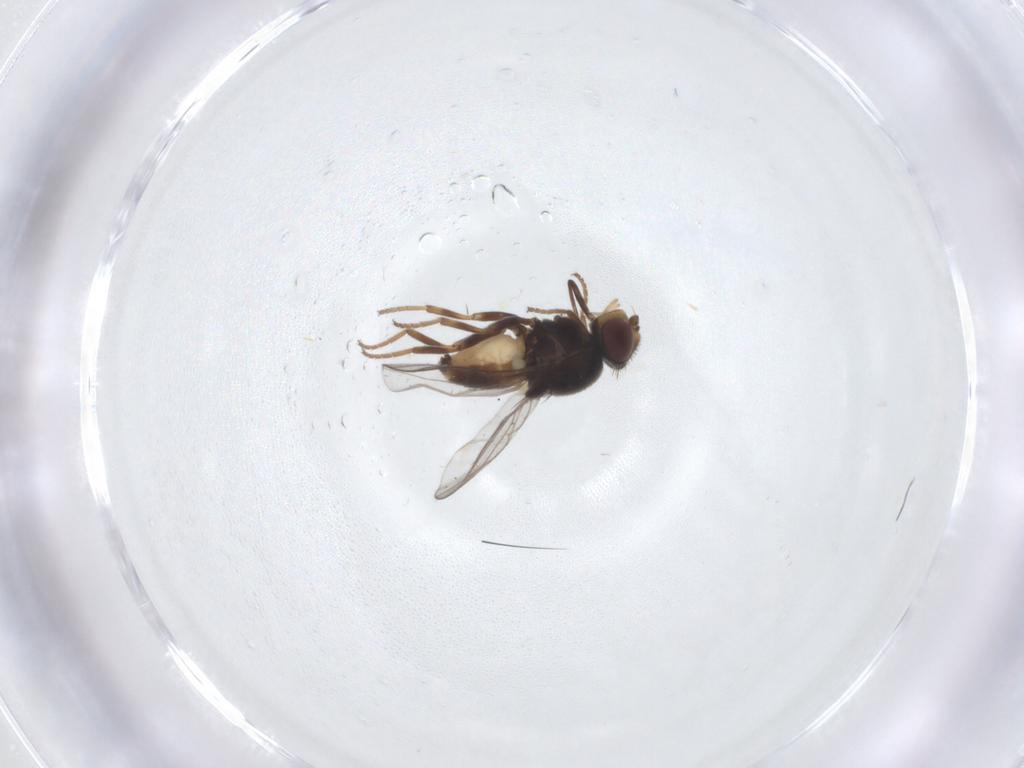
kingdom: Animalia
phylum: Arthropoda
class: Insecta
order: Diptera
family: Chloropidae
